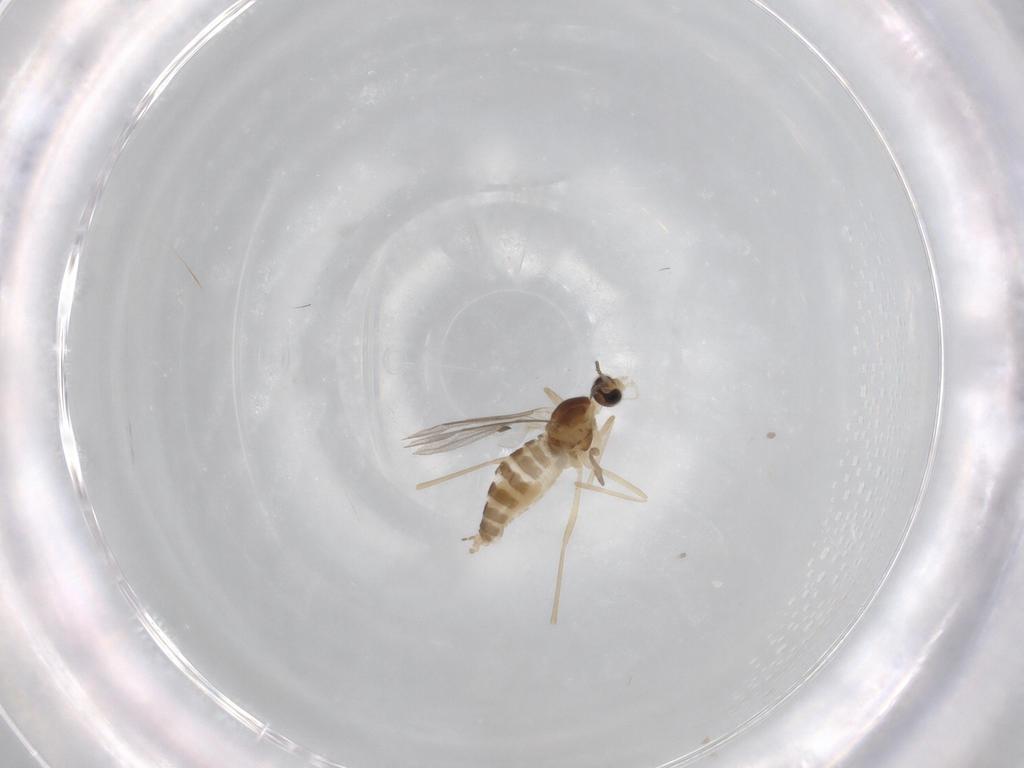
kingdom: Animalia
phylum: Arthropoda
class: Insecta
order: Diptera
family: Cecidomyiidae
